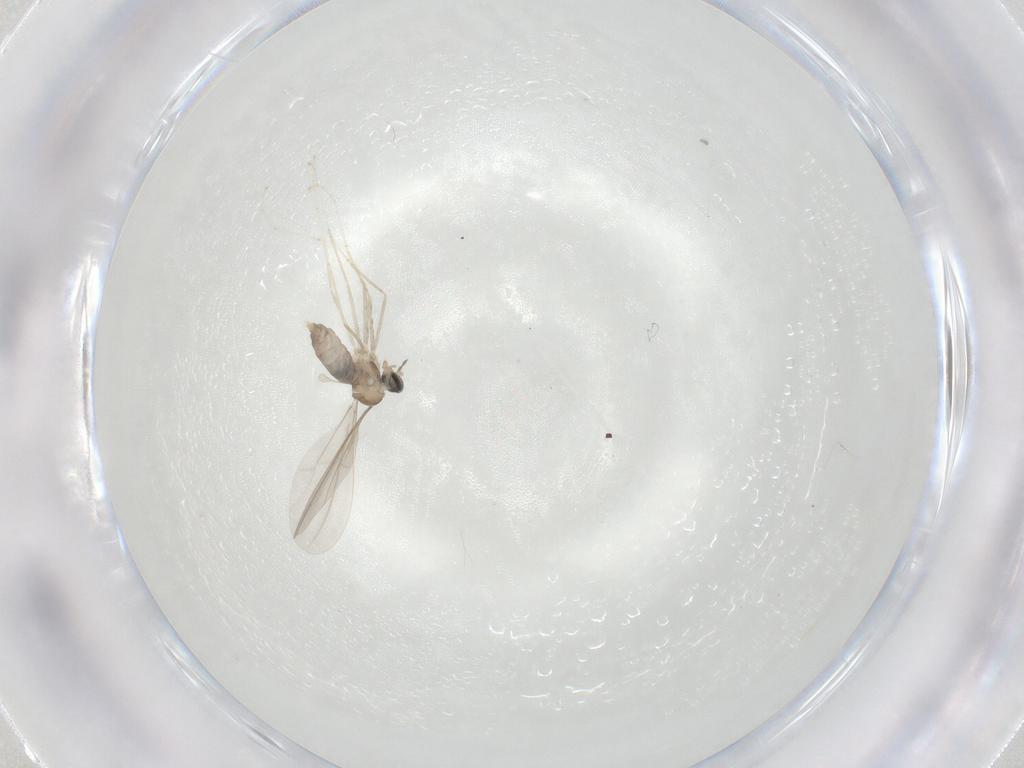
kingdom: Animalia
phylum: Arthropoda
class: Insecta
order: Diptera
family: Cecidomyiidae
